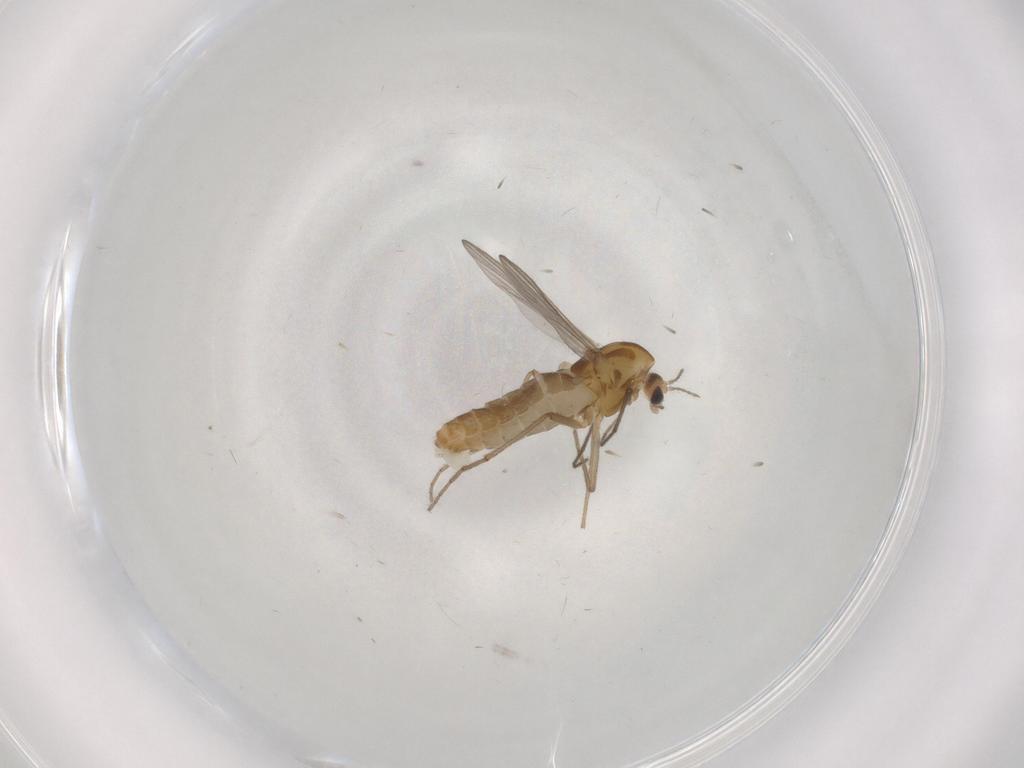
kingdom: Animalia
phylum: Arthropoda
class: Insecta
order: Diptera
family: Chironomidae
